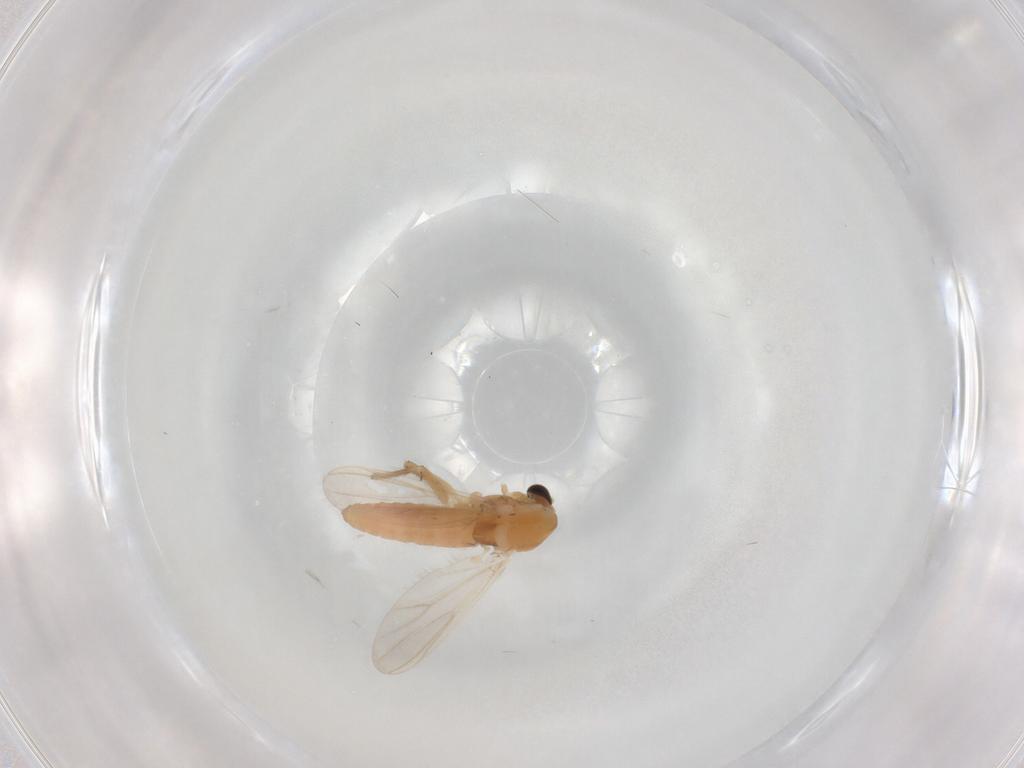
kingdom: Animalia
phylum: Arthropoda
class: Insecta
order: Diptera
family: Chironomidae
